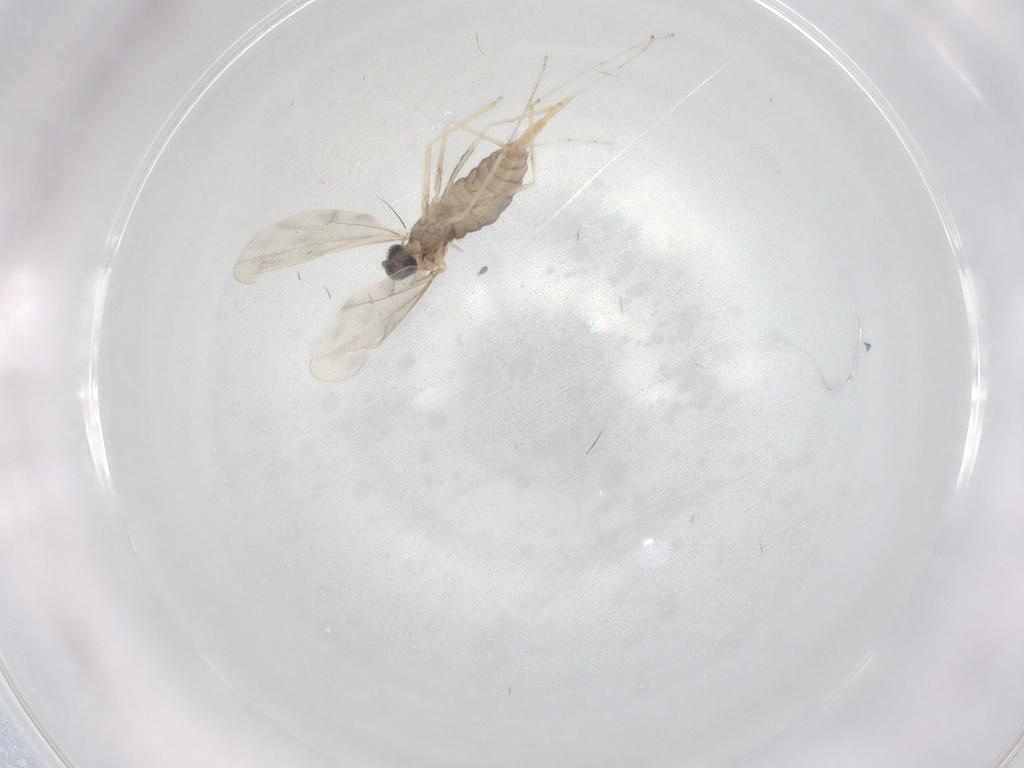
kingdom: Animalia
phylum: Arthropoda
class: Insecta
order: Diptera
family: Cecidomyiidae
